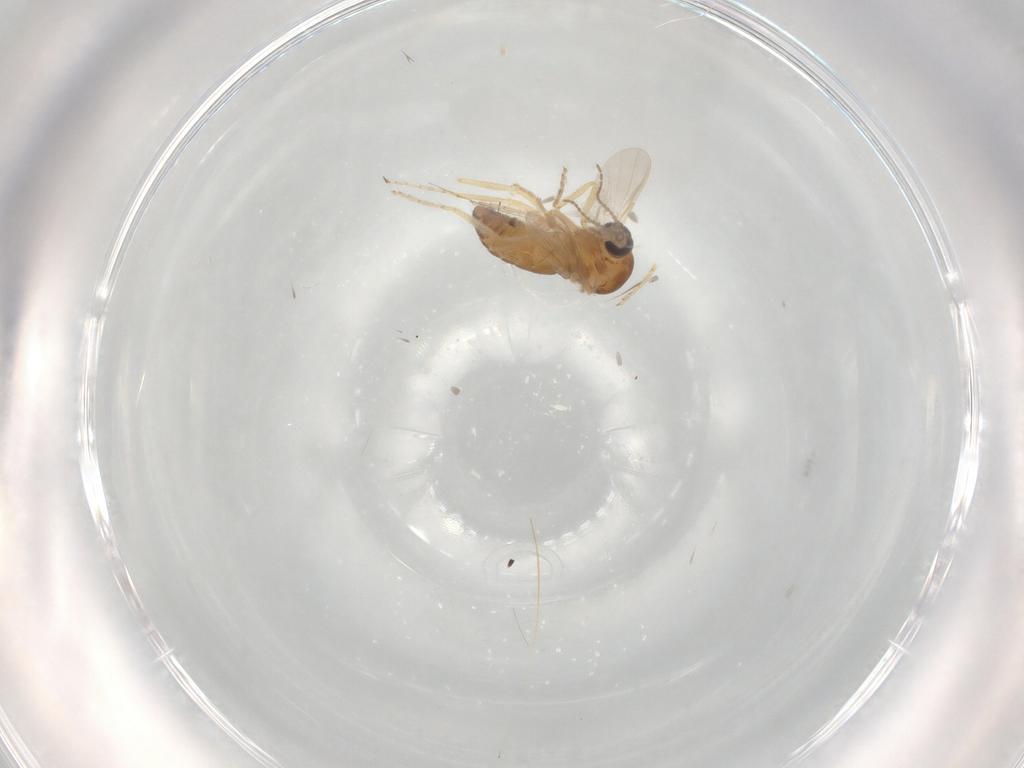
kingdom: Animalia
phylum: Arthropoda
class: Insecta
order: Diptera
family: Ceratopogonidae
